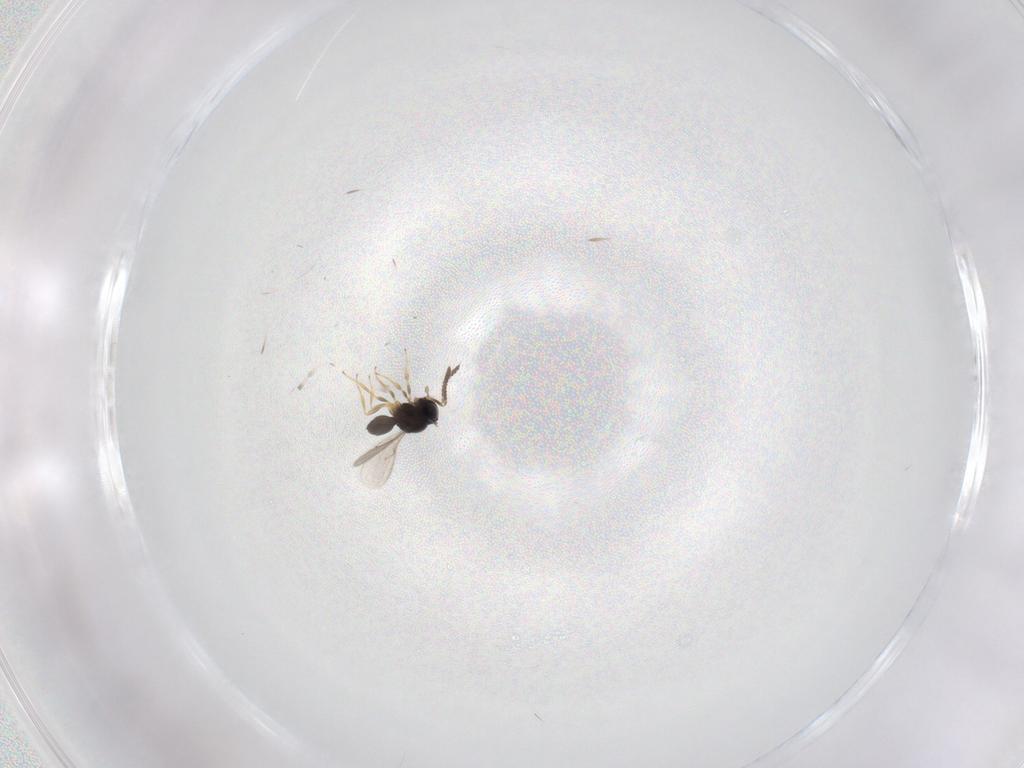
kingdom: Animalia
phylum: Arthropoda
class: Insecta
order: Hymenoptera
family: Scelionidae
